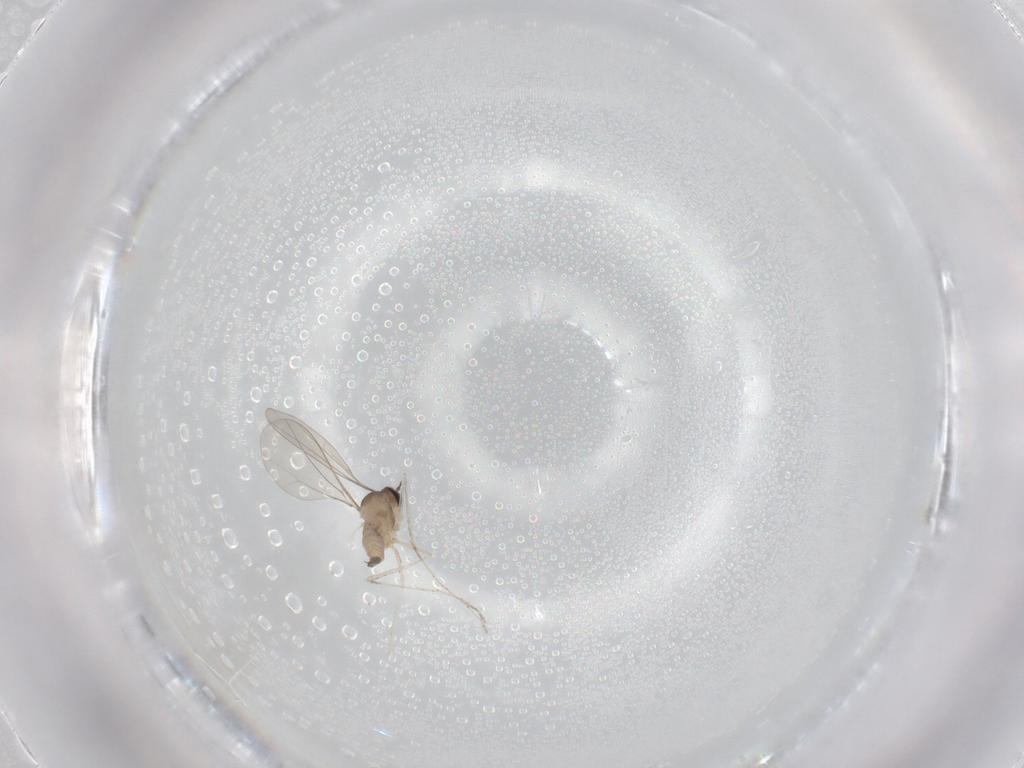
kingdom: Animalia
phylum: Arthropoda
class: Insecta
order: Diptera
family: Cecidomyiidae
